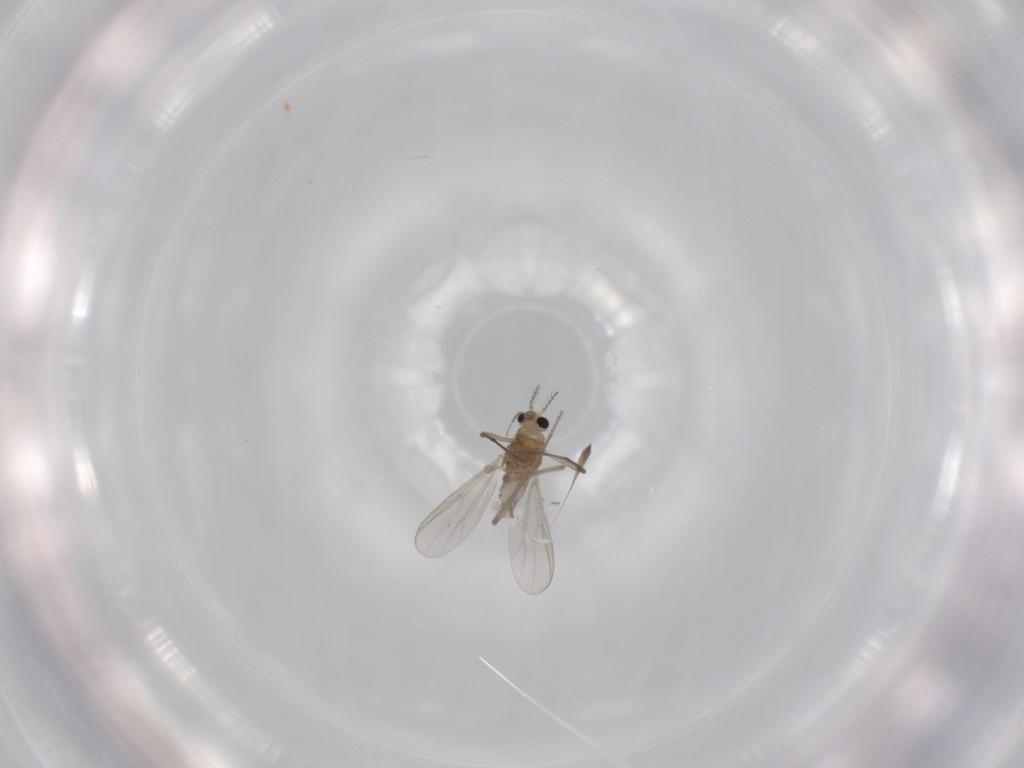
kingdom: Animalia
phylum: Arthropoda
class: Insecta
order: Diptera
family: Chironomidae
